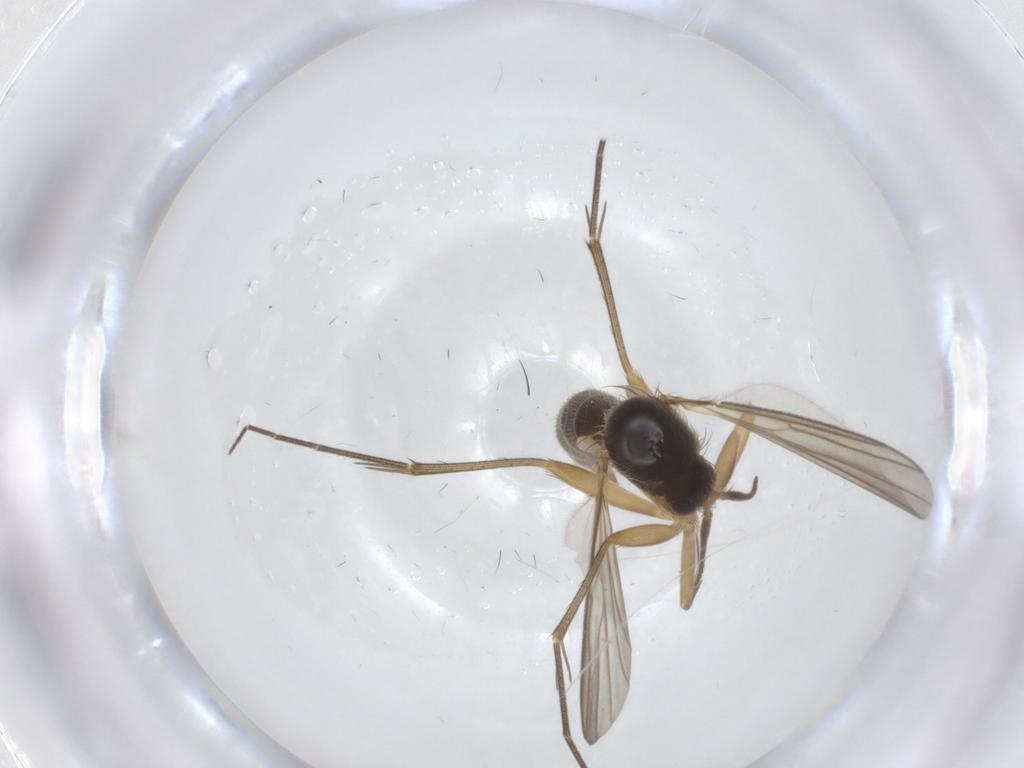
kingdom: Animalia
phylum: Arthropoda
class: Insecta
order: Diptera
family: Mycetophilidae
